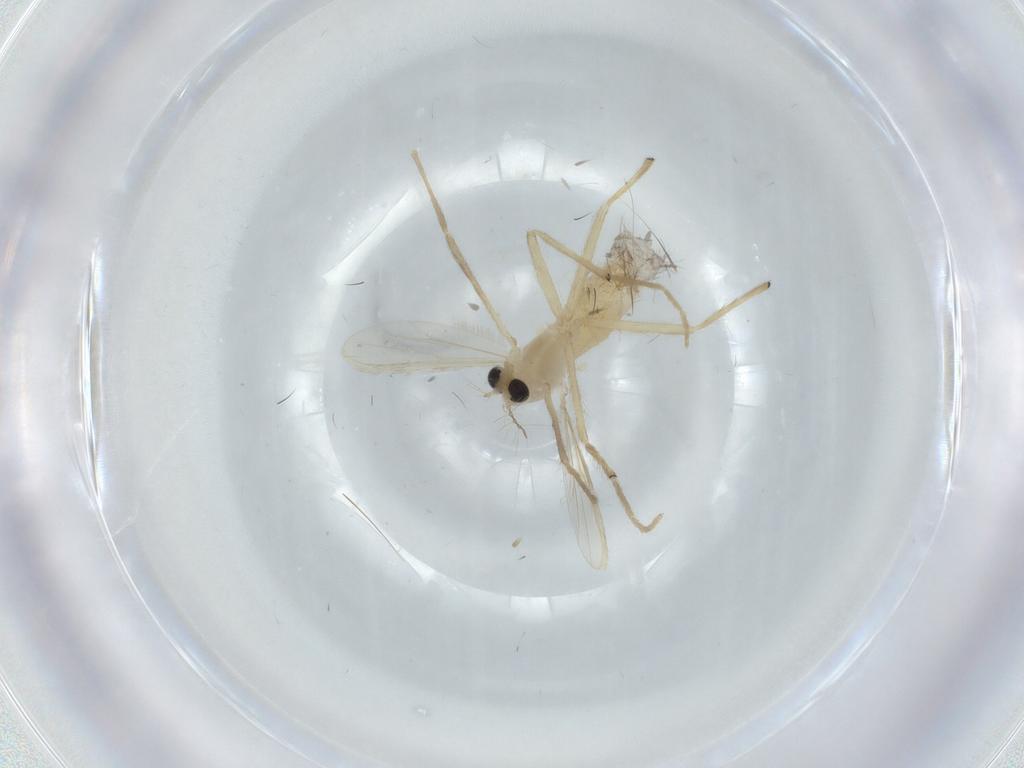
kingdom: Animalia
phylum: Arthropoda
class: Insecta
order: Diptera
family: Chironomidae
